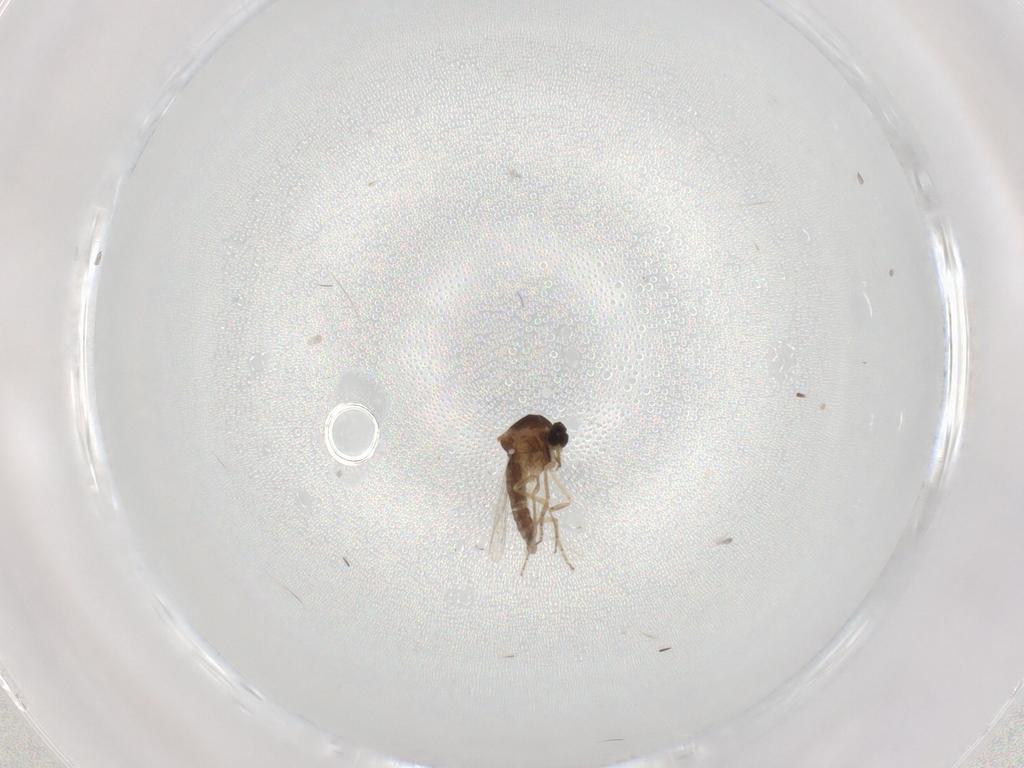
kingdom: Animalia
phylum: Arthropoda
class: Insecta
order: Diptera
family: Ceratopogonidae
